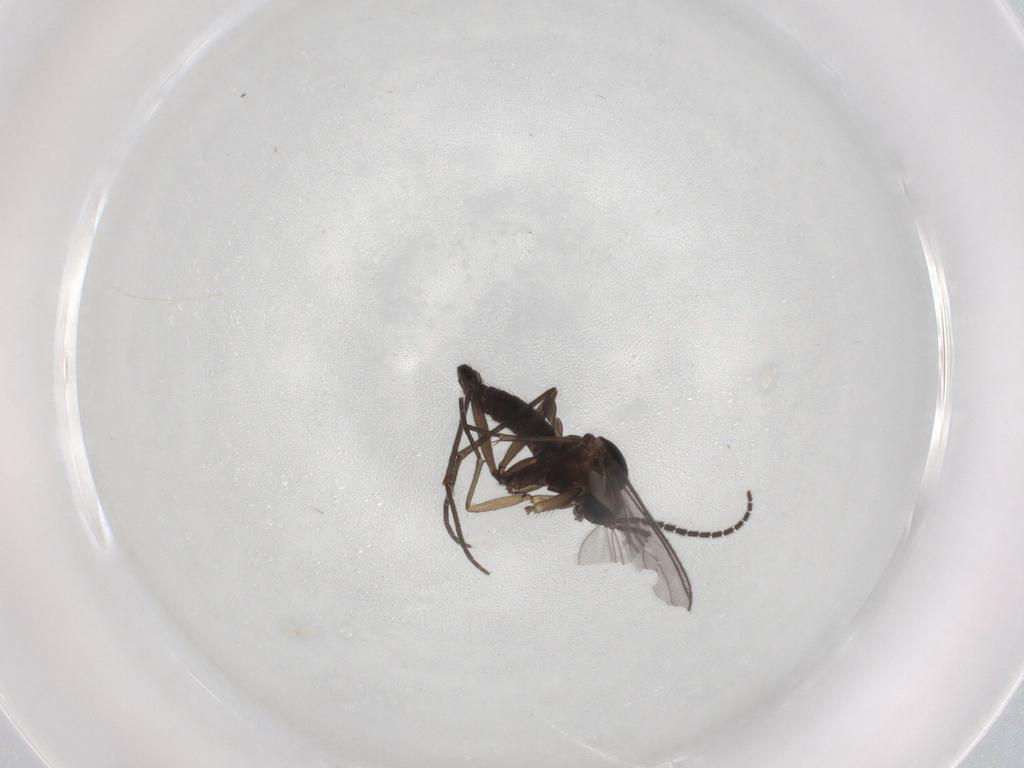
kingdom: Animalia
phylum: Arthropoda
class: Insecta
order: Diptera
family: Sciaridae
